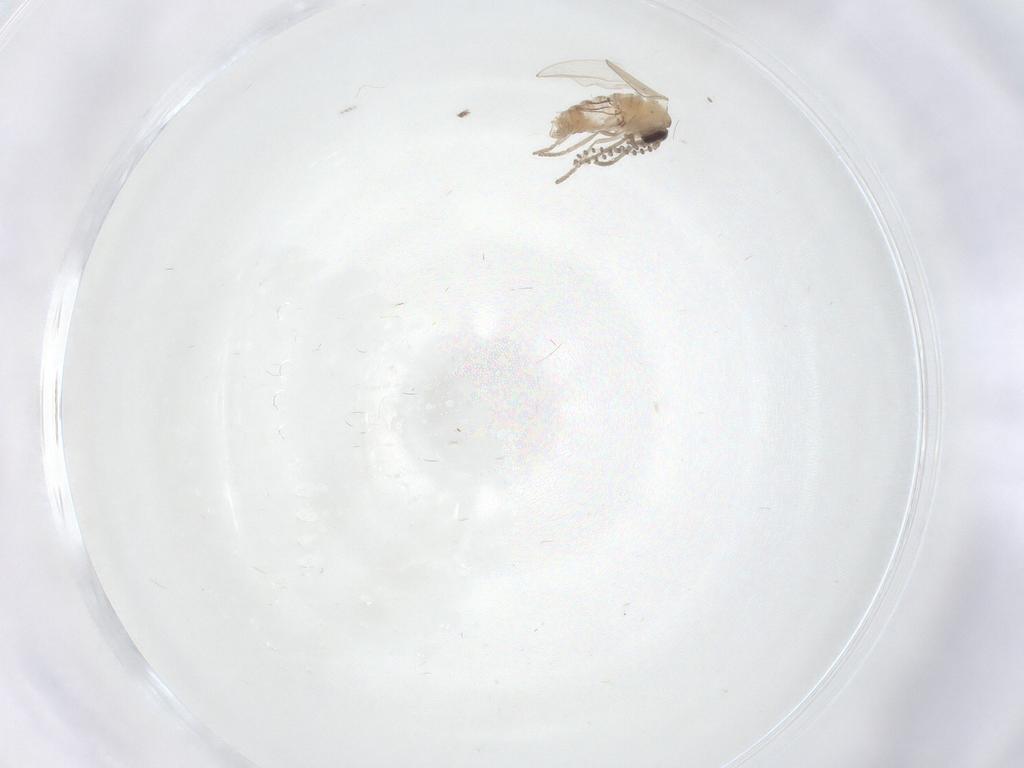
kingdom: Animalia
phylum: Arthropoda
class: Insecta
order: Diptera
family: Psychodidae
